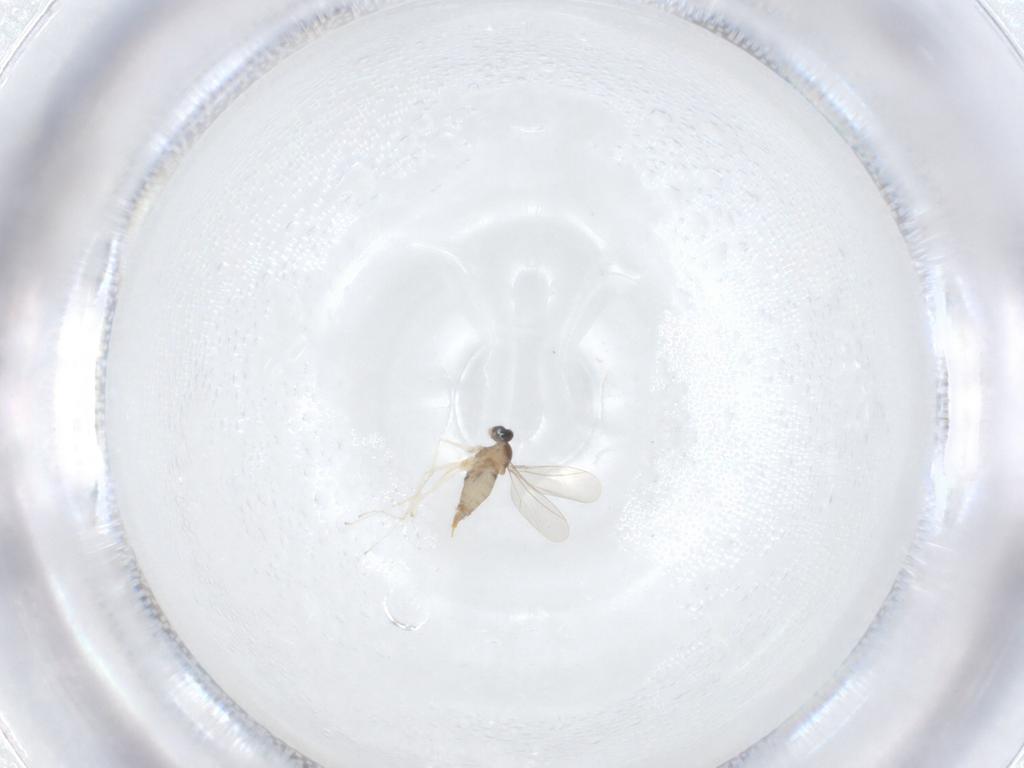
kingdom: Animalia
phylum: Arthropoda
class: Insecta
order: Diptera
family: Cecidomyiidae
